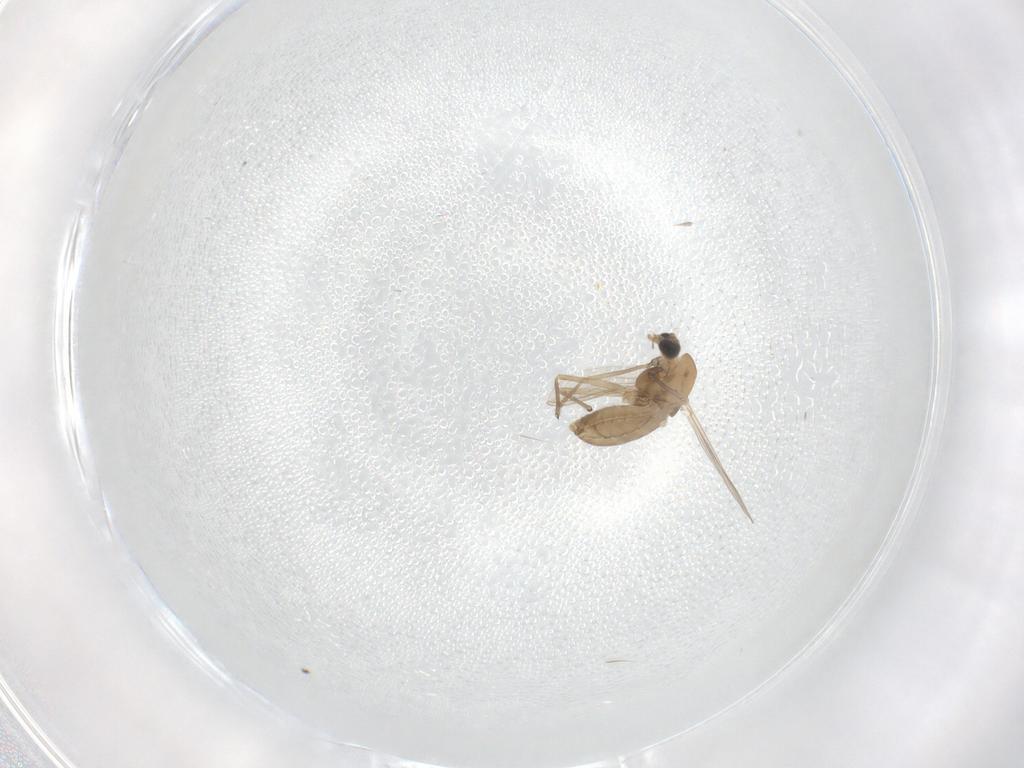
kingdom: Animalia
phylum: Arthropoda
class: Insecta
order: Diptera
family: Chironomidae
